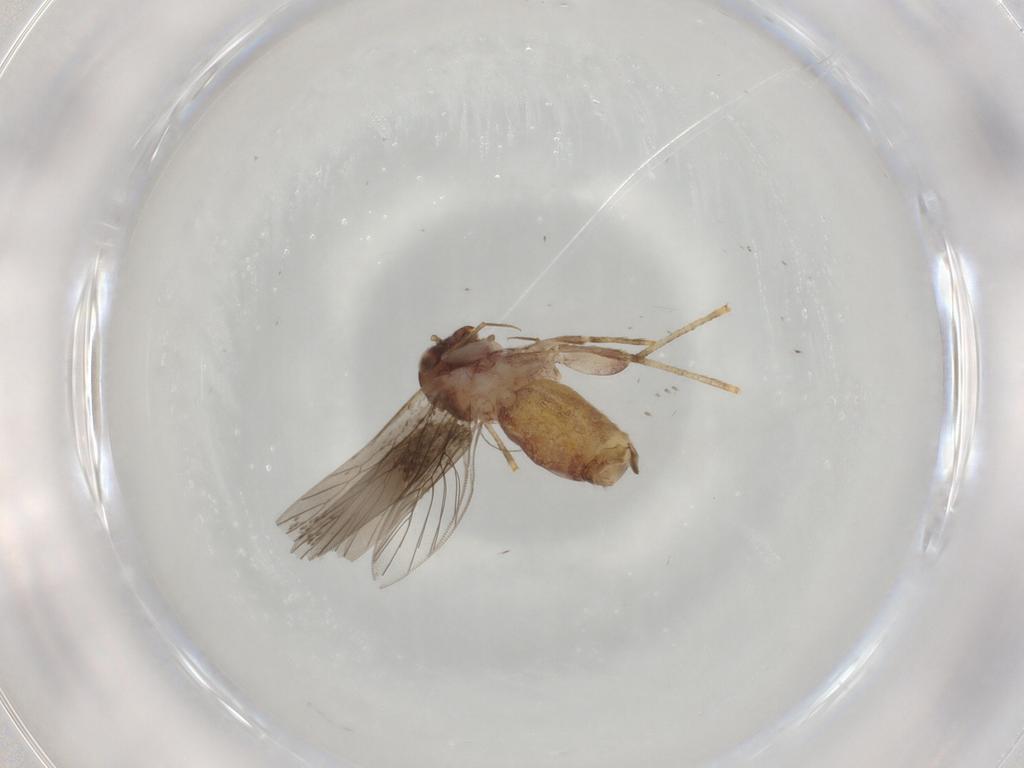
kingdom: Animalia
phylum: Arthropoda
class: Insecta
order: Psocodea
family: Lepidopsocidae
